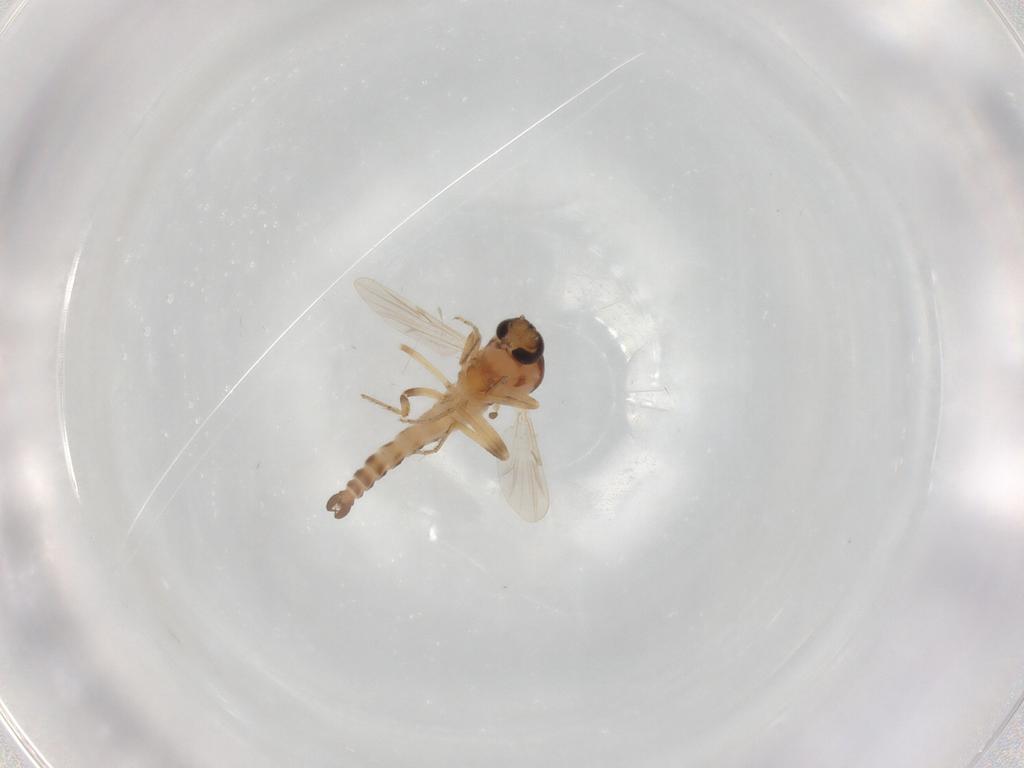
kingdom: Animalia
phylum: Arthropoda
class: Insecta
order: Diptera
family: Ceratopogonidae
